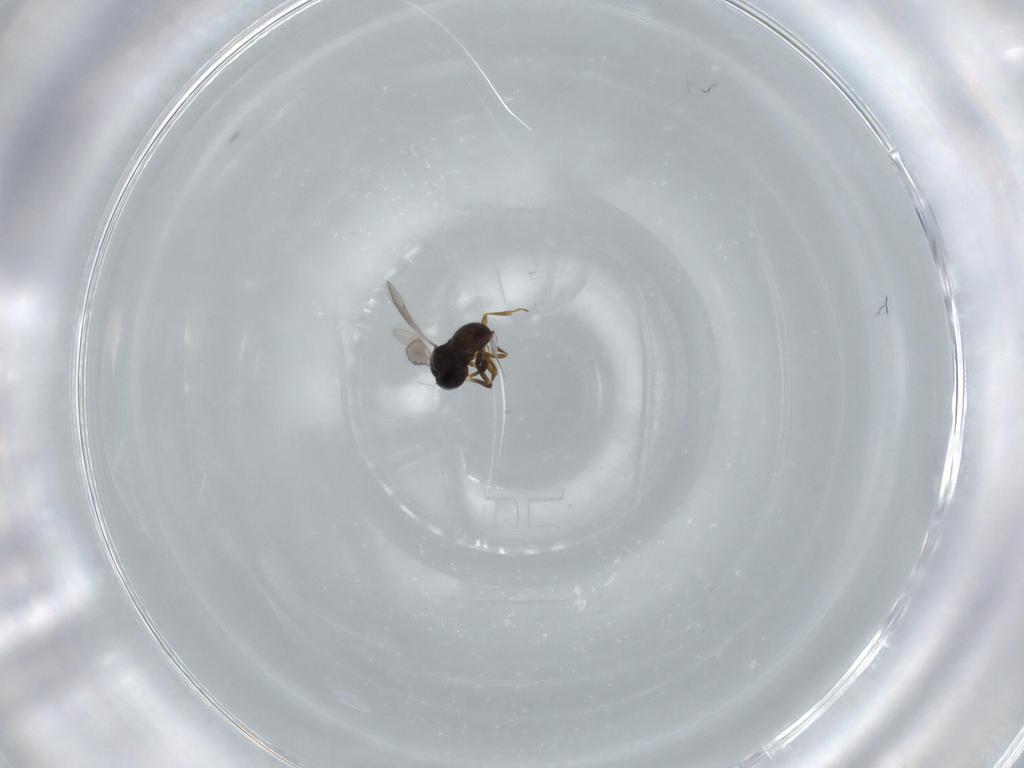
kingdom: Animalia
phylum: Arthropoda
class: Insecta
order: Hymenoptera
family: Scelionidae
